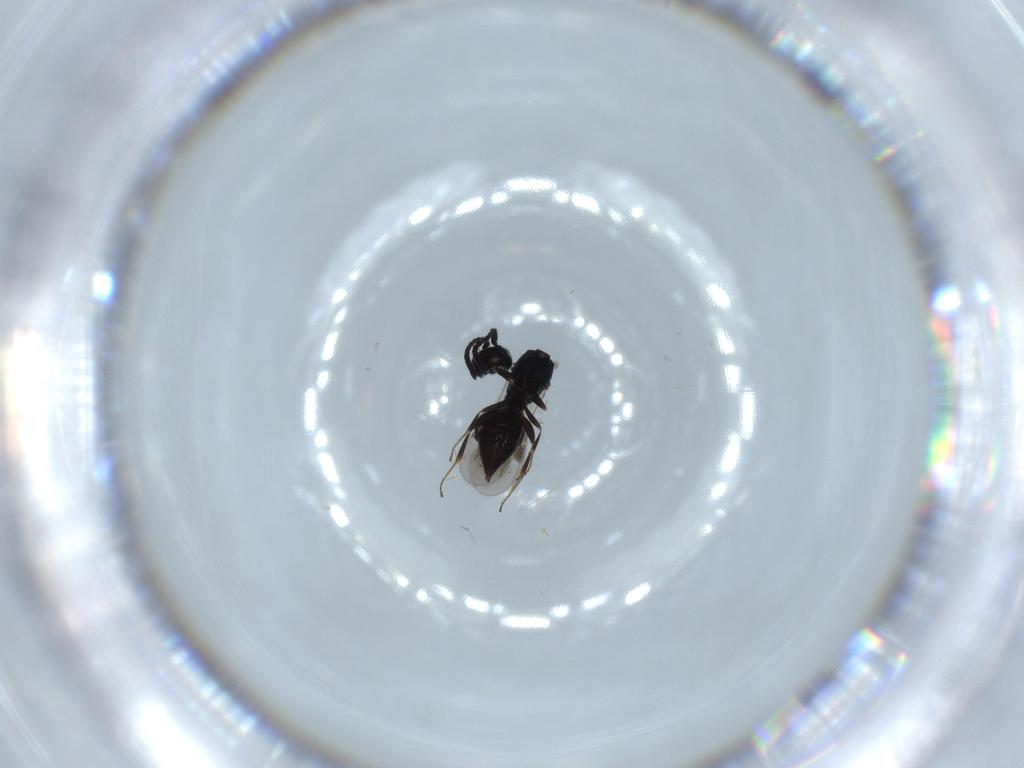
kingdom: Animalia
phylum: Arthropoda
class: Insecta
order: Hymenoptera
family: Megaspilidae
